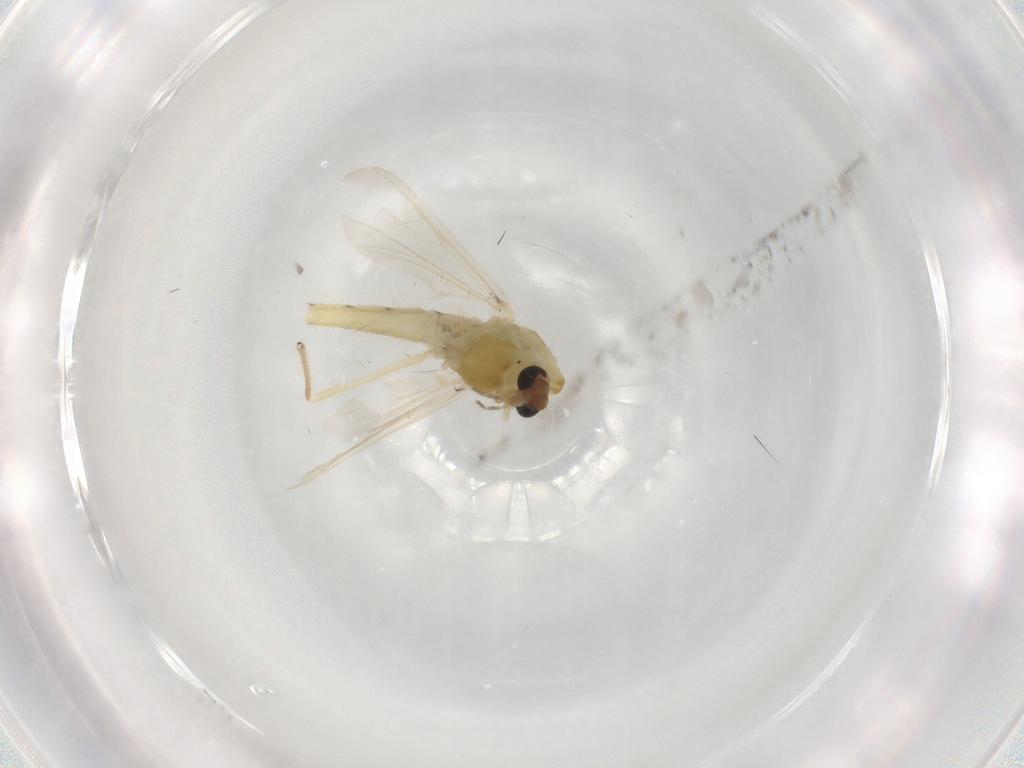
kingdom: Animalia
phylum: Arthropoda
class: Insecta
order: Diptera
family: Chironomidae
